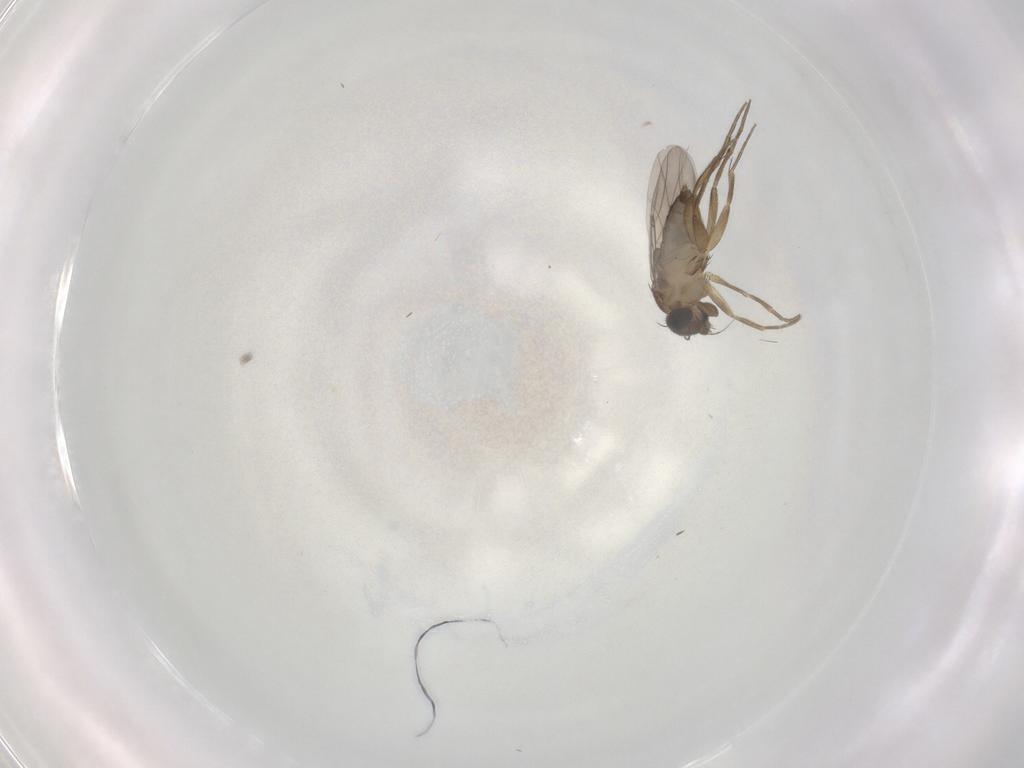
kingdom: Animalia
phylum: Arthropoda
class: Insecta
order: Diptera
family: Phoridae
